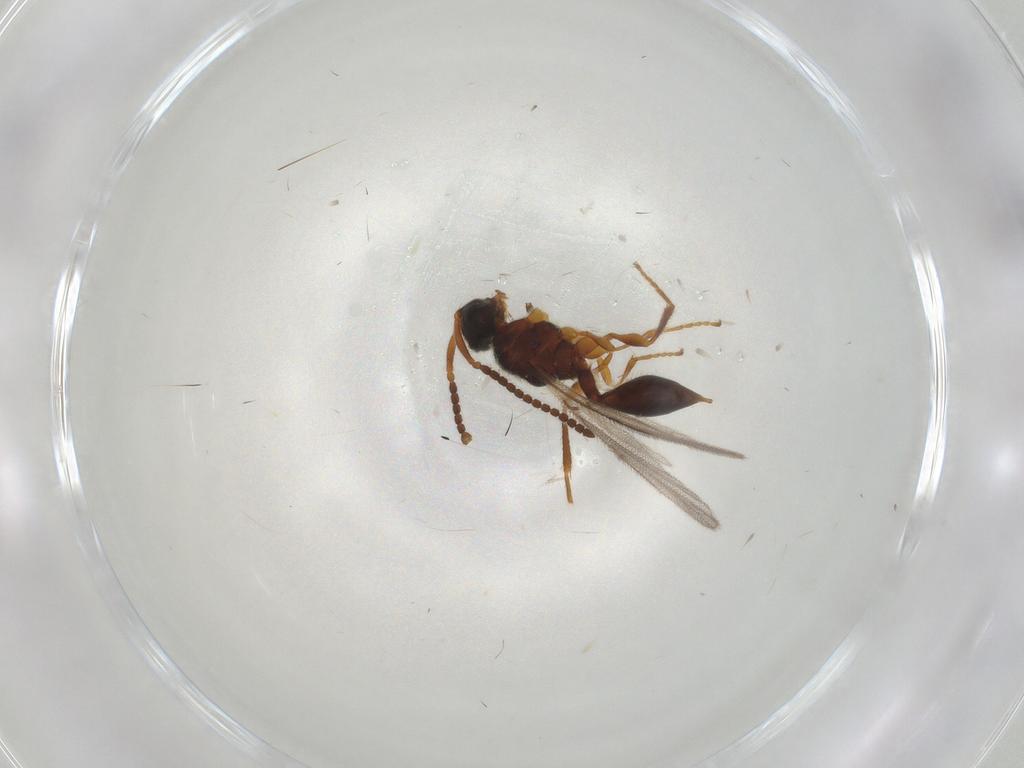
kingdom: Animalia
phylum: Arthropoda
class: Insecta
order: Hymenoptera
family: Diapriidae
